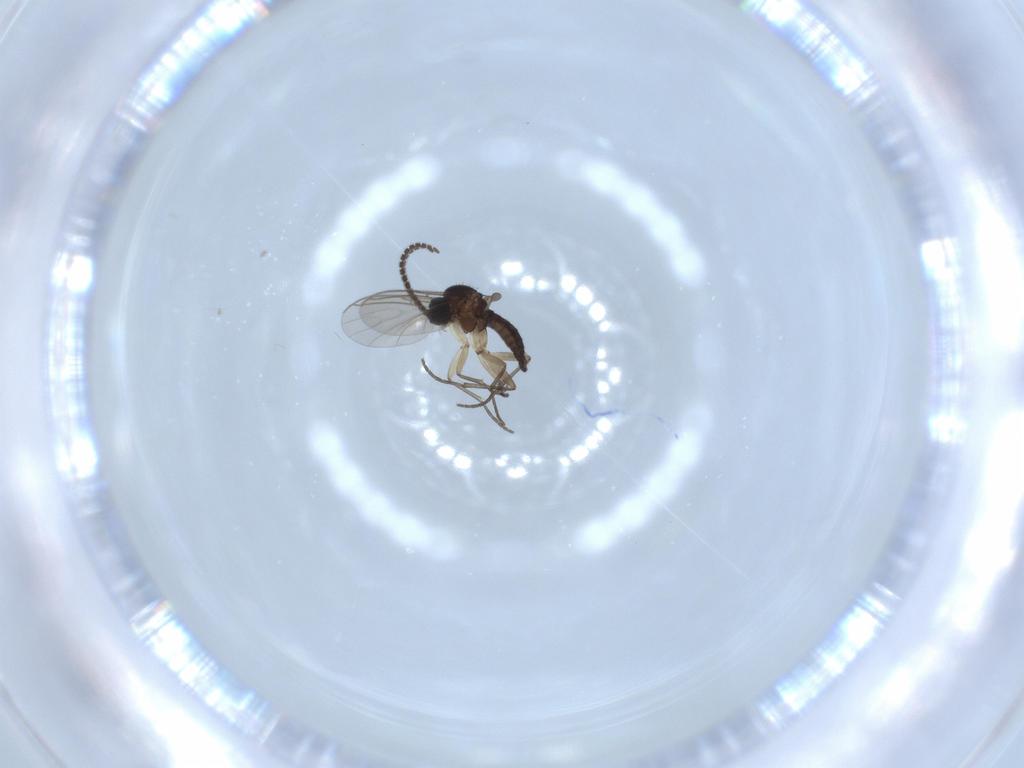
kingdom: Animalia
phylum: Arthropoda
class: Insecta
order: Diptera
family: Sciaridae
